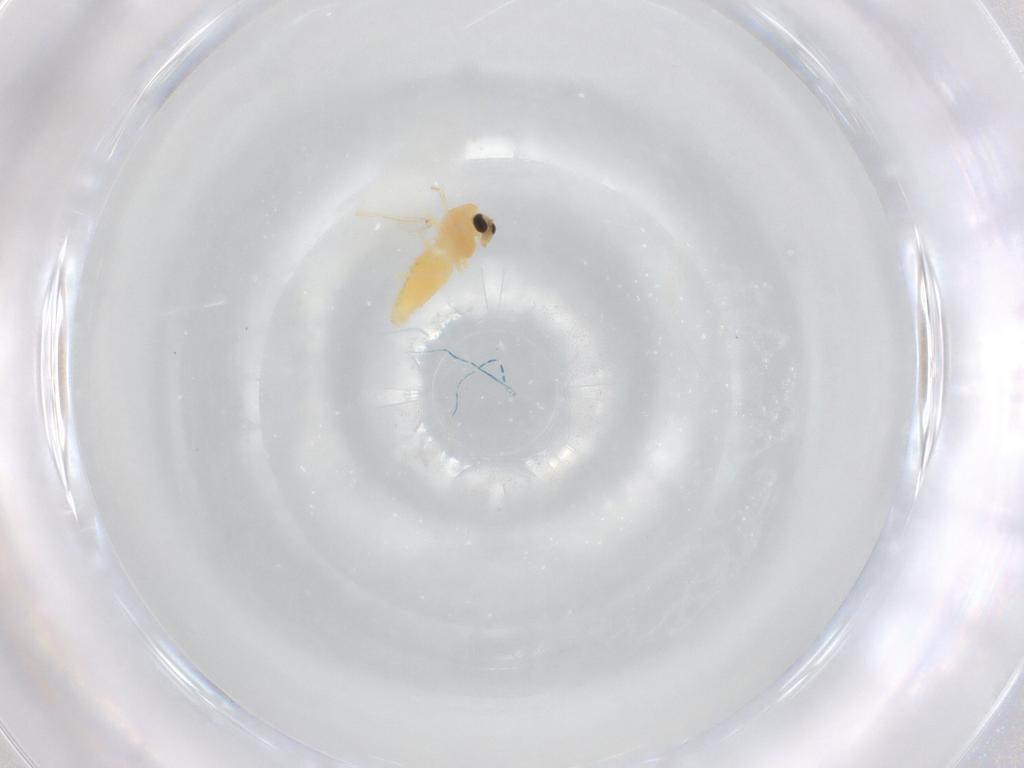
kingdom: Animalia
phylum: Arthropoda
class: Insecta
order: Diptera
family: Chironomidae
